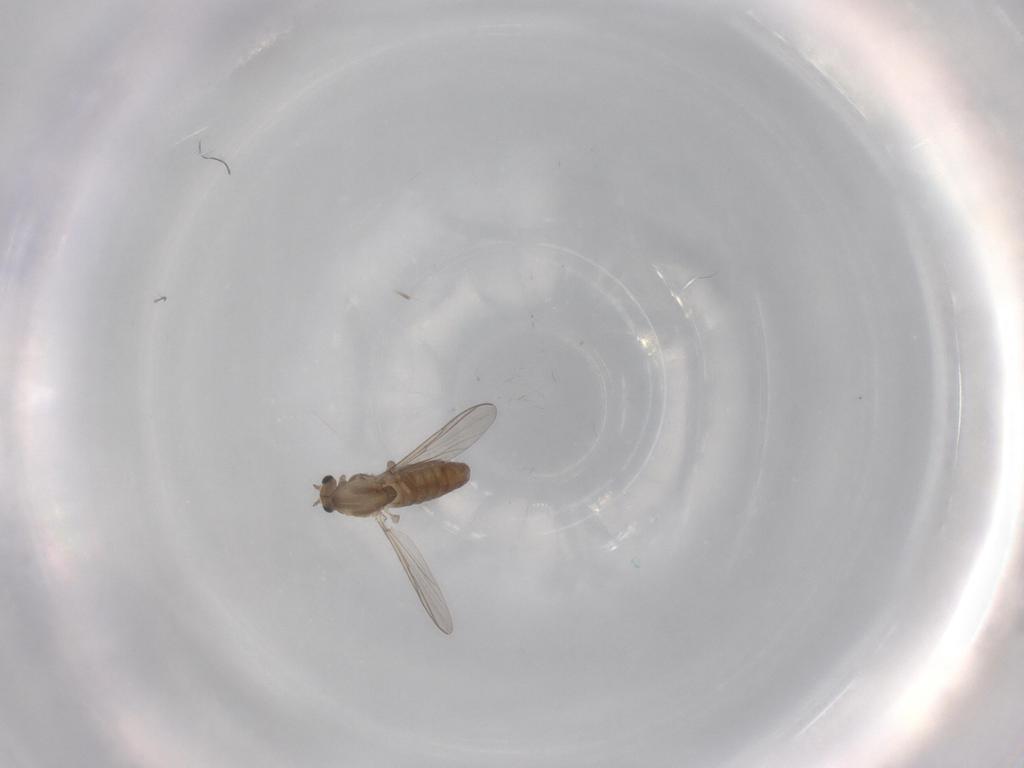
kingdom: Animalia
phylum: Arthropoda
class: Insecta
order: Diptera
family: Chironomidae
